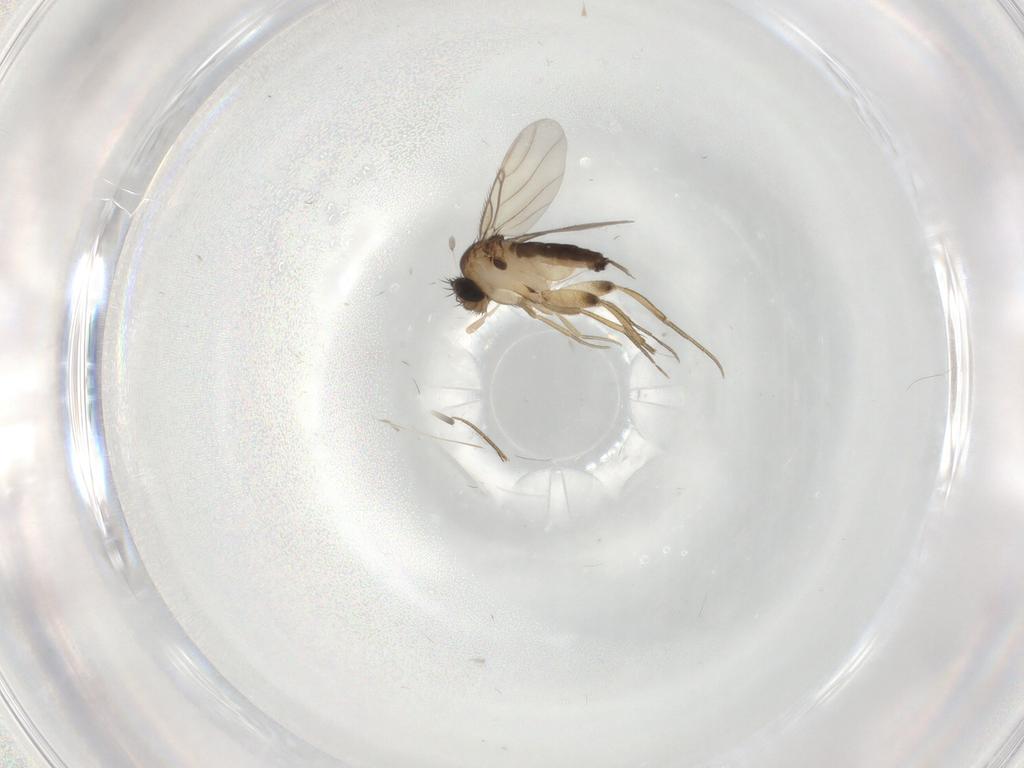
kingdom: Animalia
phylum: Arthropoda
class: Insecta
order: Diptera
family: Phoridae
